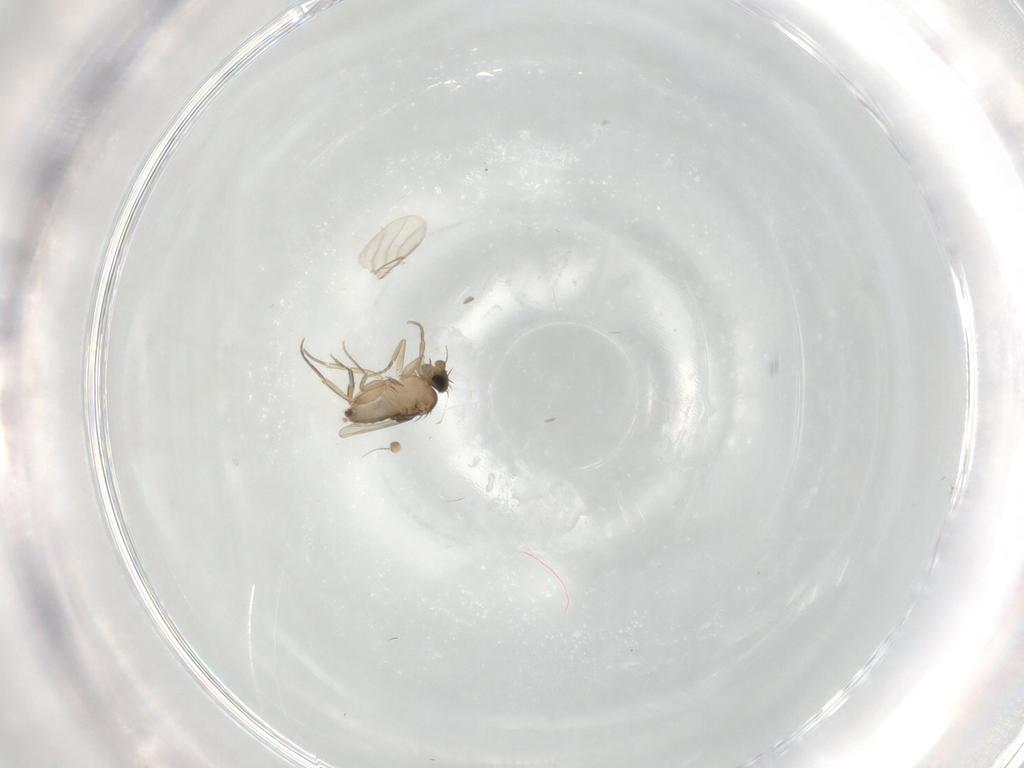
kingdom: Animalia
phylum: Arthropoda
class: Insecta
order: Diptera
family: Phoridae
